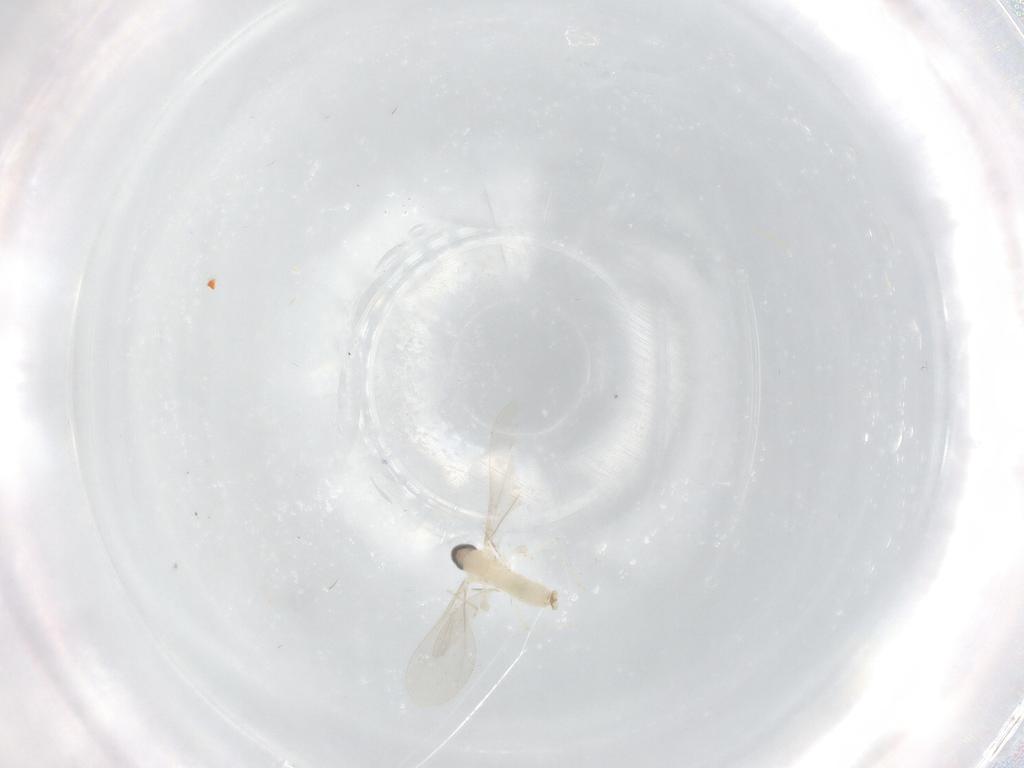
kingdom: Animalia
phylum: Arthropoda
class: Insecta
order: Diptera
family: Cecidomyiidae
